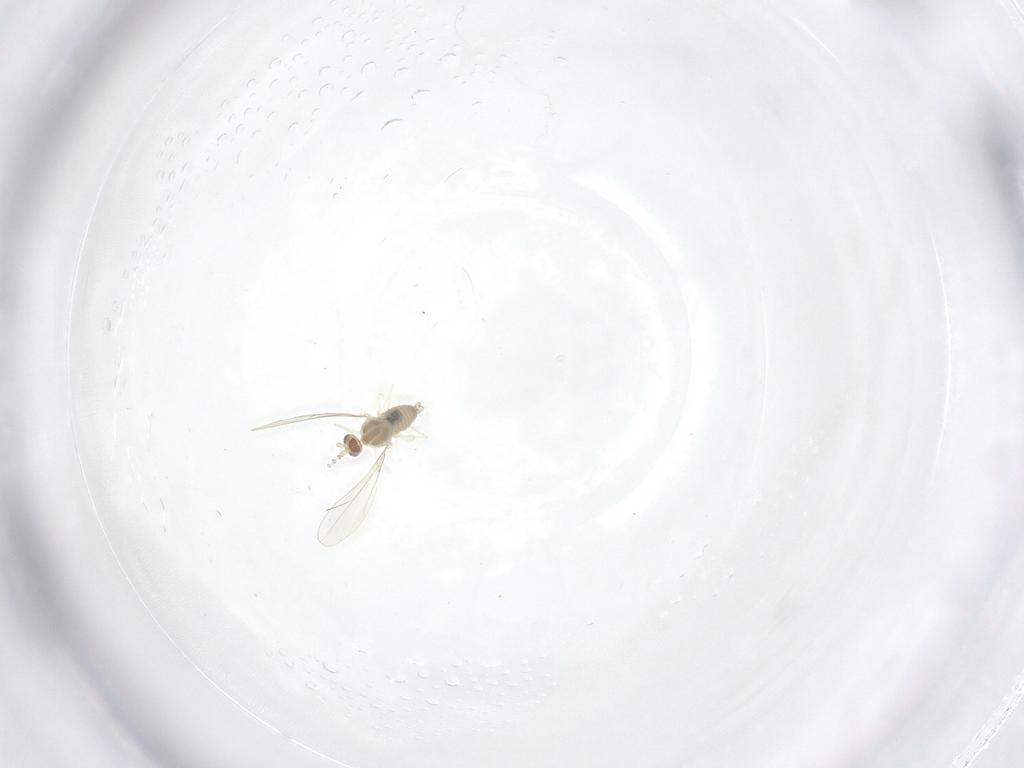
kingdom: Animalia
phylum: Arthropoda
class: Insecta
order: Diptera
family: Cecidomyiidae
